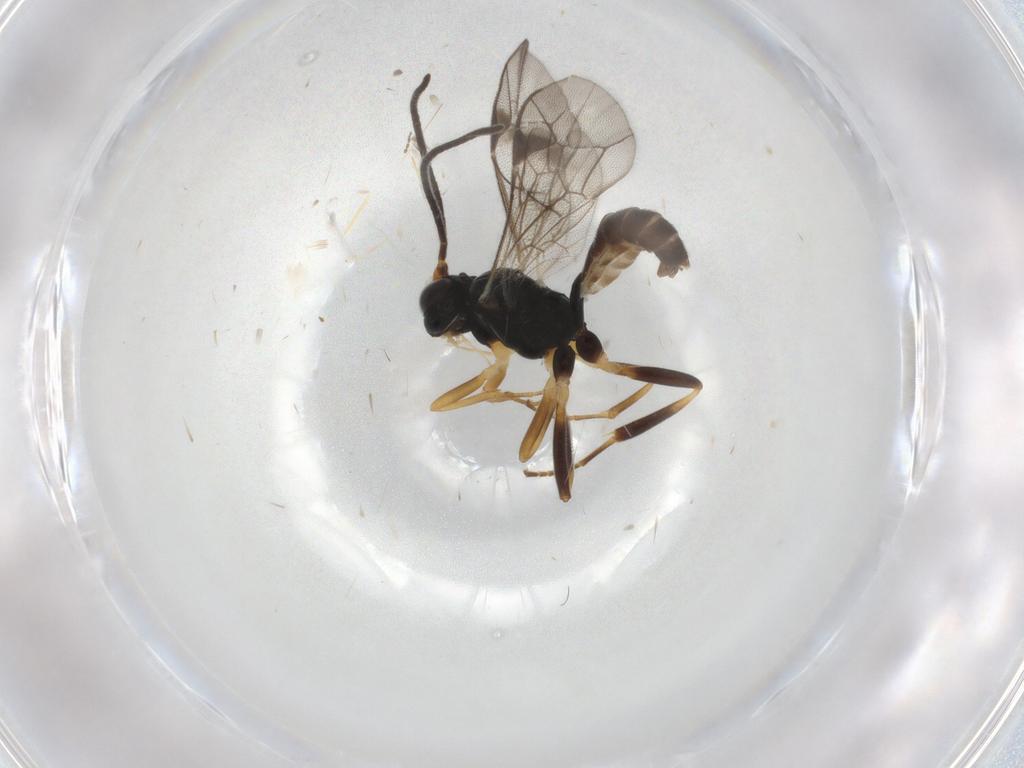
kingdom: Animalia
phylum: Arthropoda
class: Insecta
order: Hymenoptera
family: Ichneumonidae
